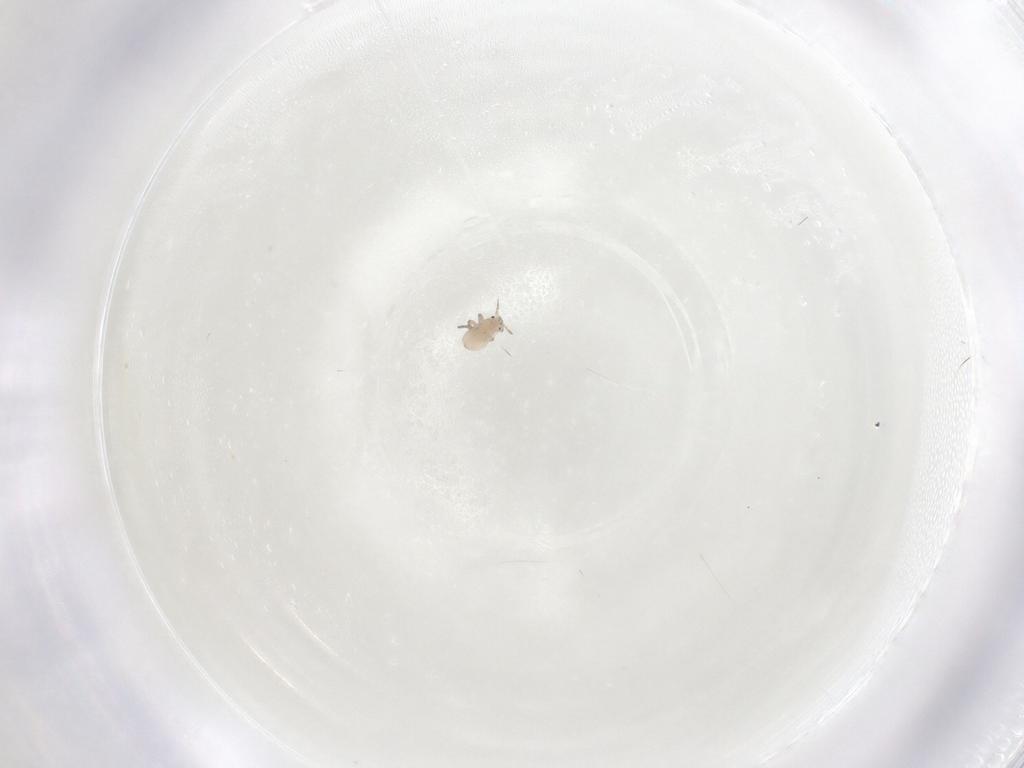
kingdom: Animalia
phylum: Arthropoda
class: Insecta
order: Hemiptera
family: Aphididae
